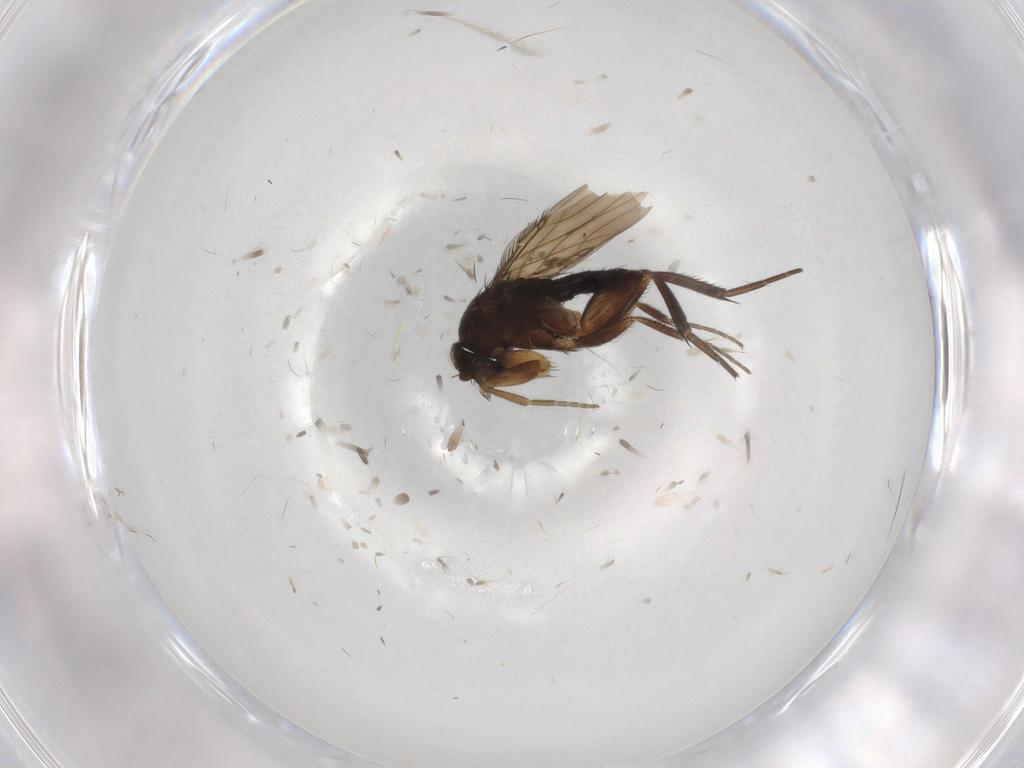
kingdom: Animalia
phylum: Arthropoda
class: Insecta
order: Diptera
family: Phoridae
